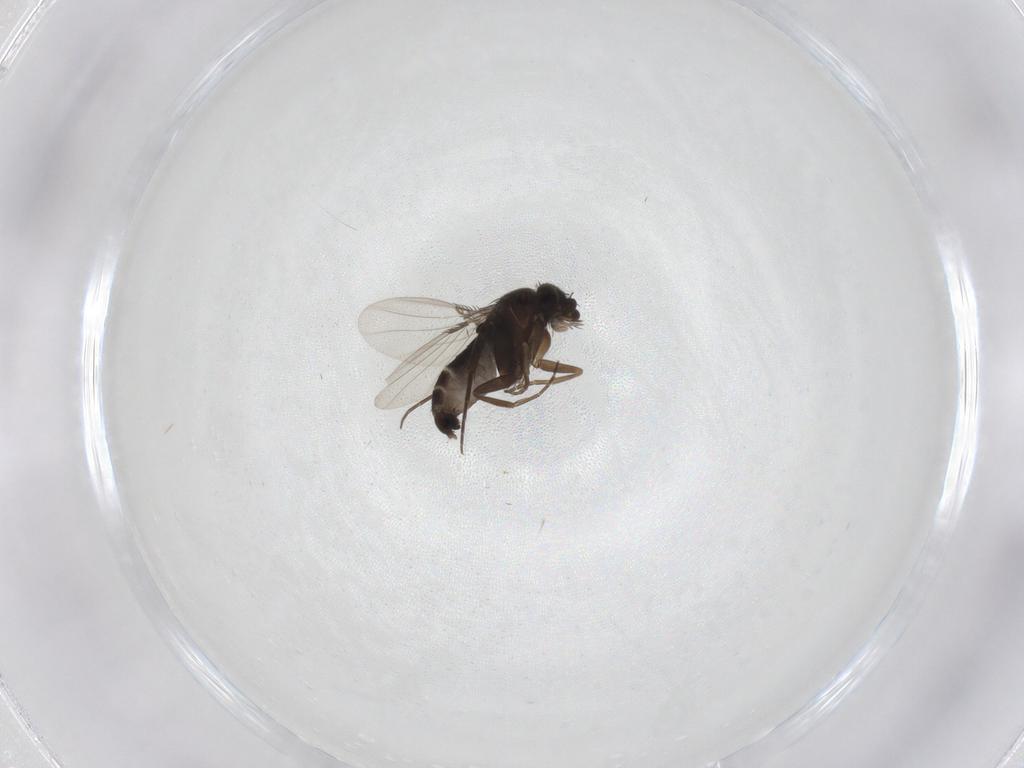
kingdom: Animalia
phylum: Arthropoda
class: Insecta
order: Diptera
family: Sciaridae
